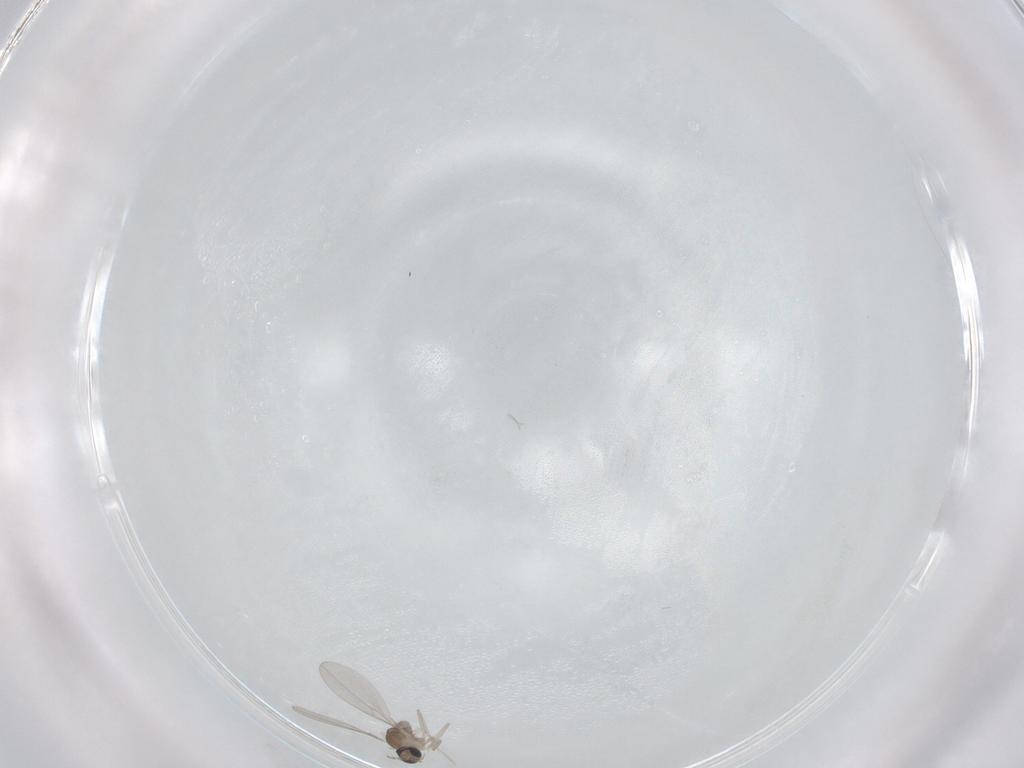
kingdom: Animalia
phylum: Arthropoda
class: Insecta
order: Diptera
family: Cecidomyiidae
